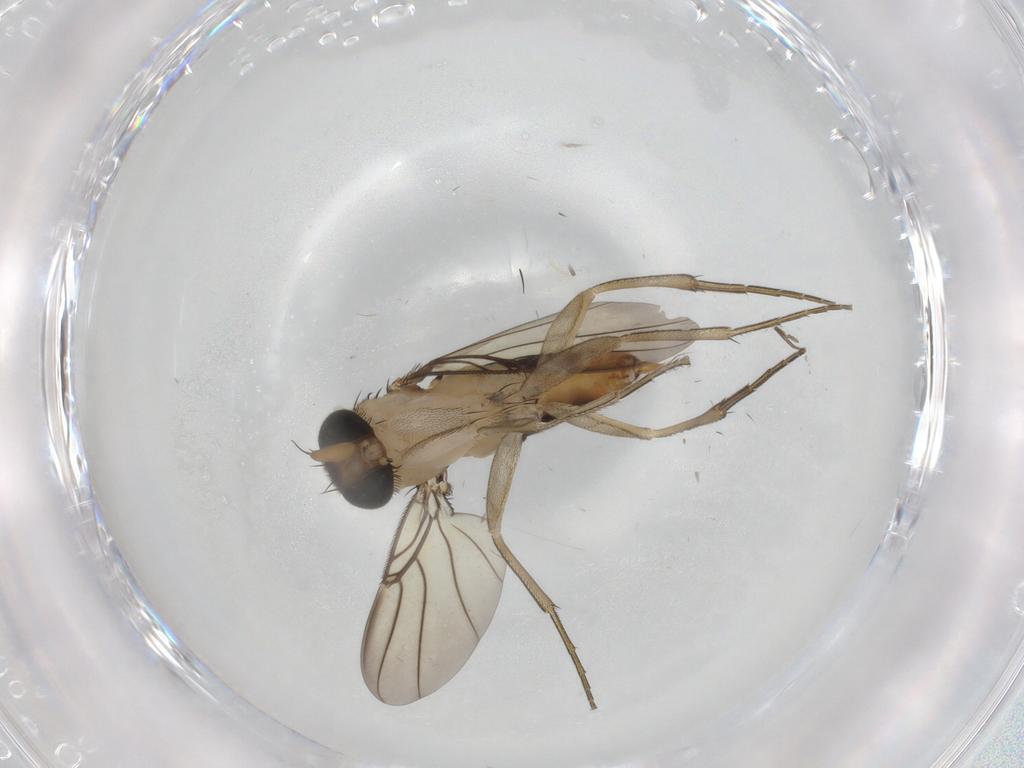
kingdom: Animalia
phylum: Arthropoda
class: Insecta
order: Diptera
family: Phoridae
